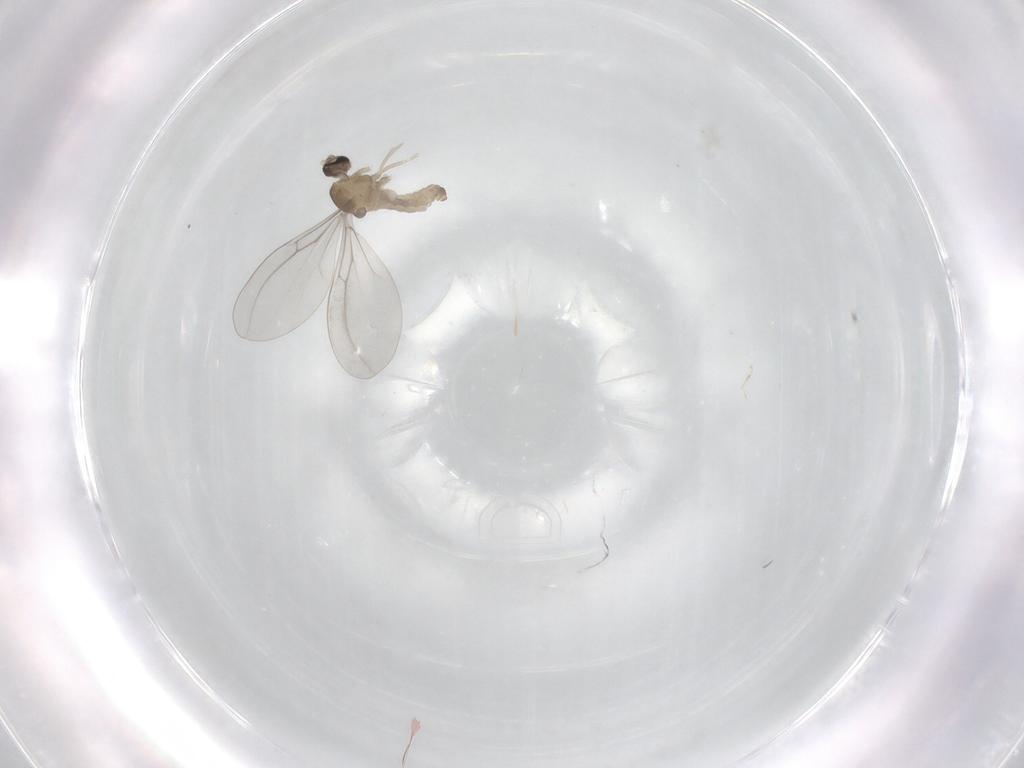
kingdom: Animalia
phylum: Arthropoda
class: Insecta
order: Diptera
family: Cecidomyiidae
